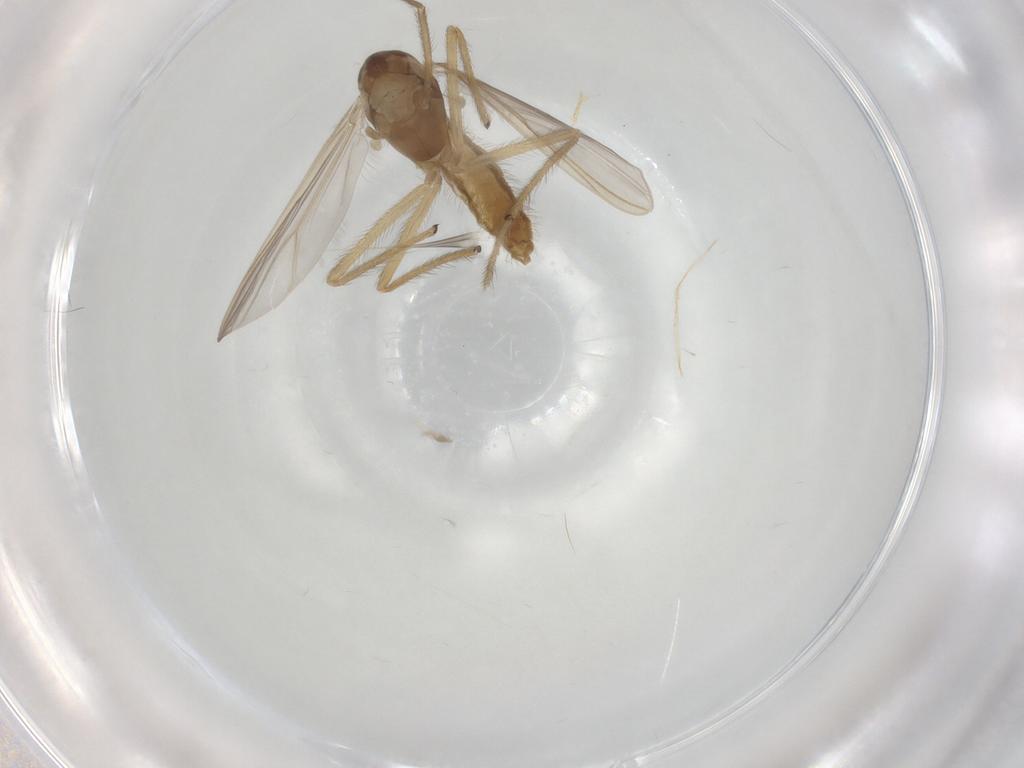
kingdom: Animalia
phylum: Arthropoda
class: Insecta
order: Diptera
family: Chironomidae
